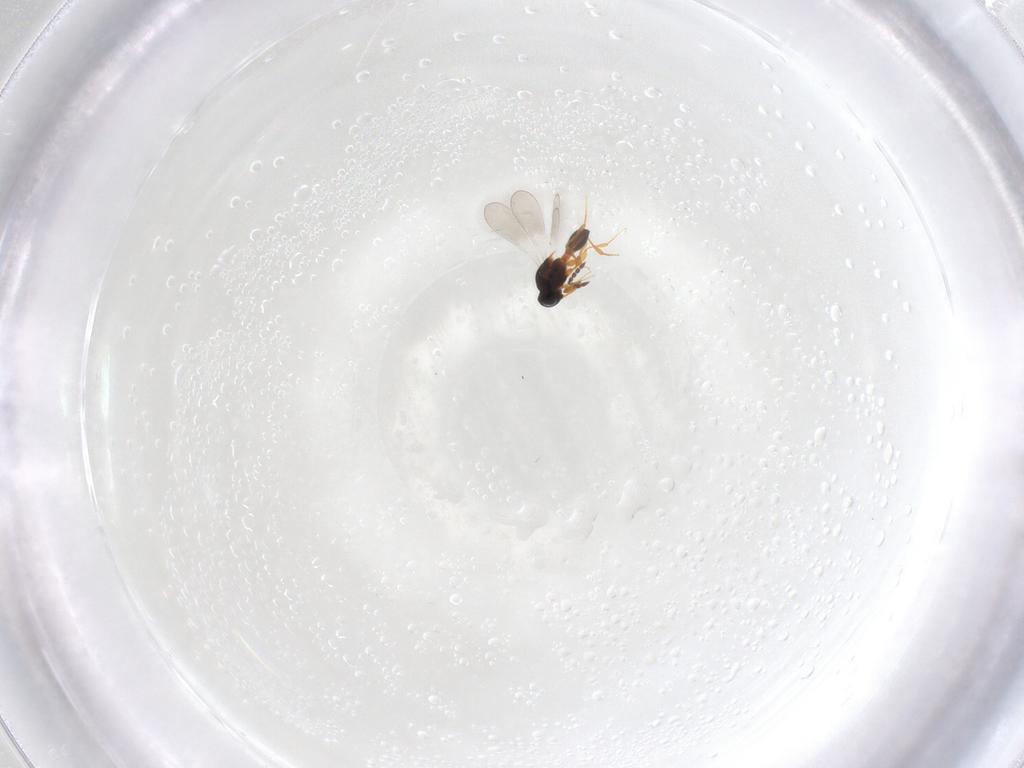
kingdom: Animalia
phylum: Arthropoda
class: Insecta
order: Hymenoptera
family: Platygastridae
